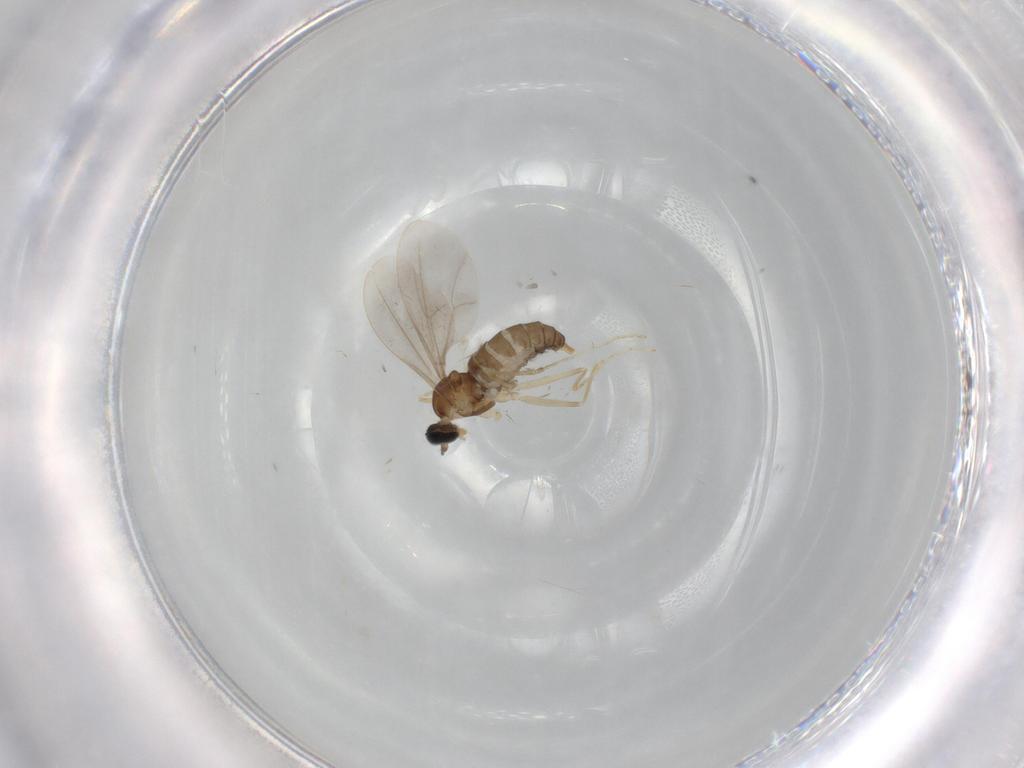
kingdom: Animalia
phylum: Arthropoda
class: Insecta
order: Diptera
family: Cecidomyiidae
